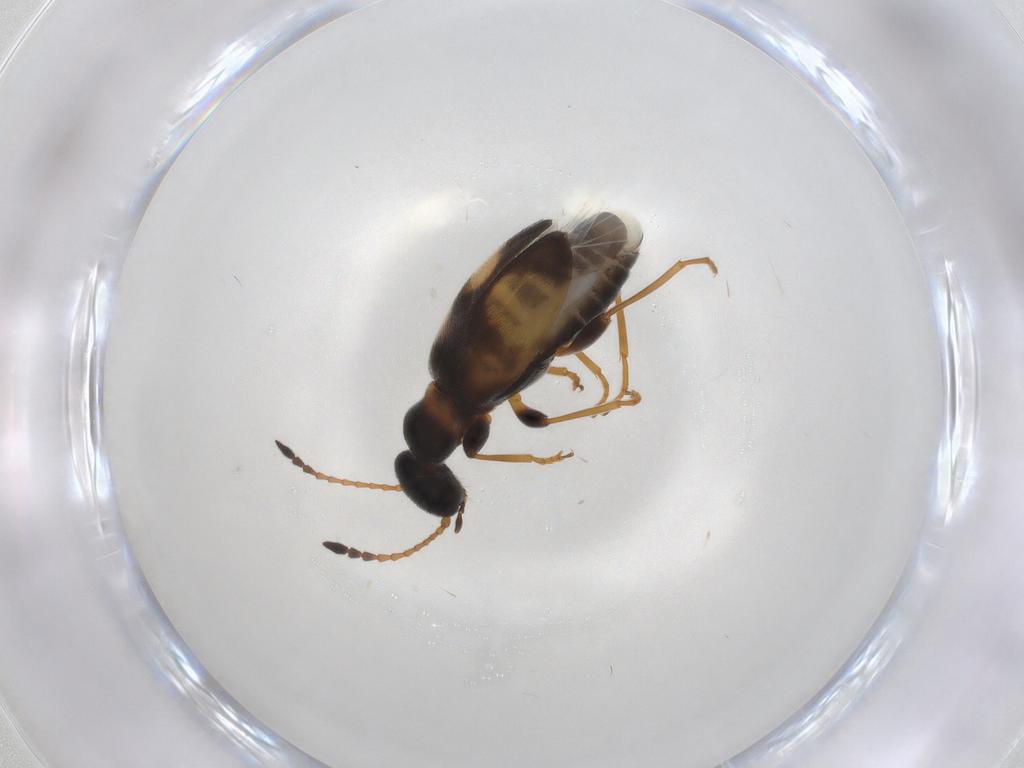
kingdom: Animalia
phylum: Arthropoda
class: Insecta
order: Coleoptera
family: Anthicidae
